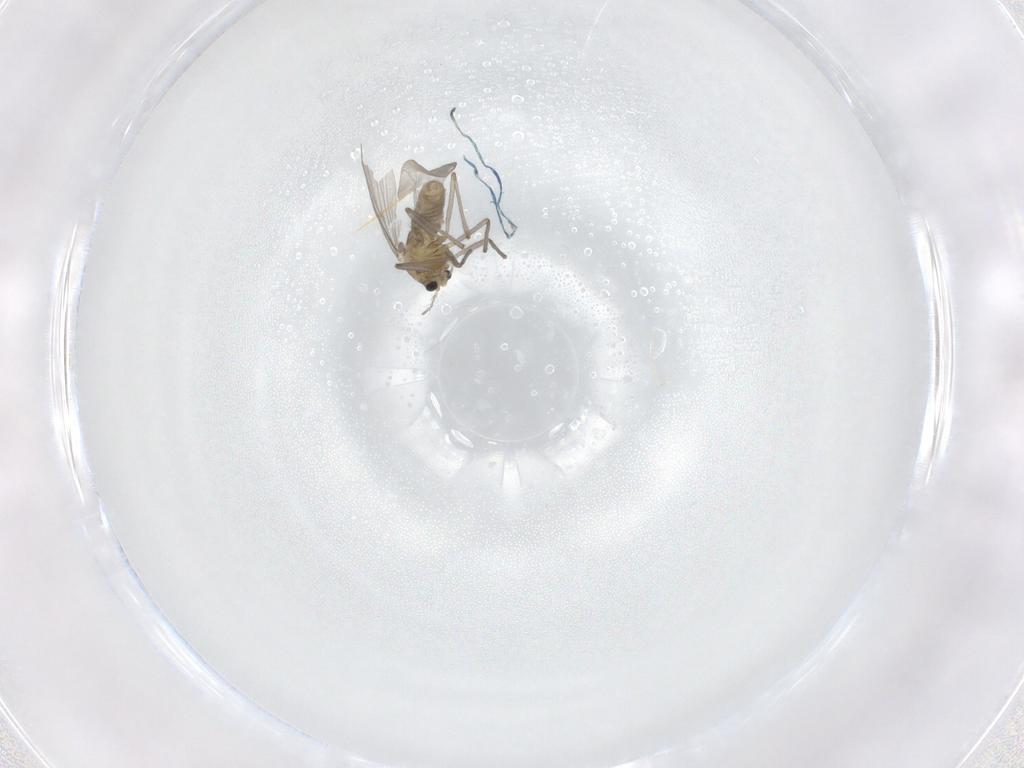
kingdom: Animalia
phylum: Arthropoda
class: Insecta
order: Diptera
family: Chironomidae
